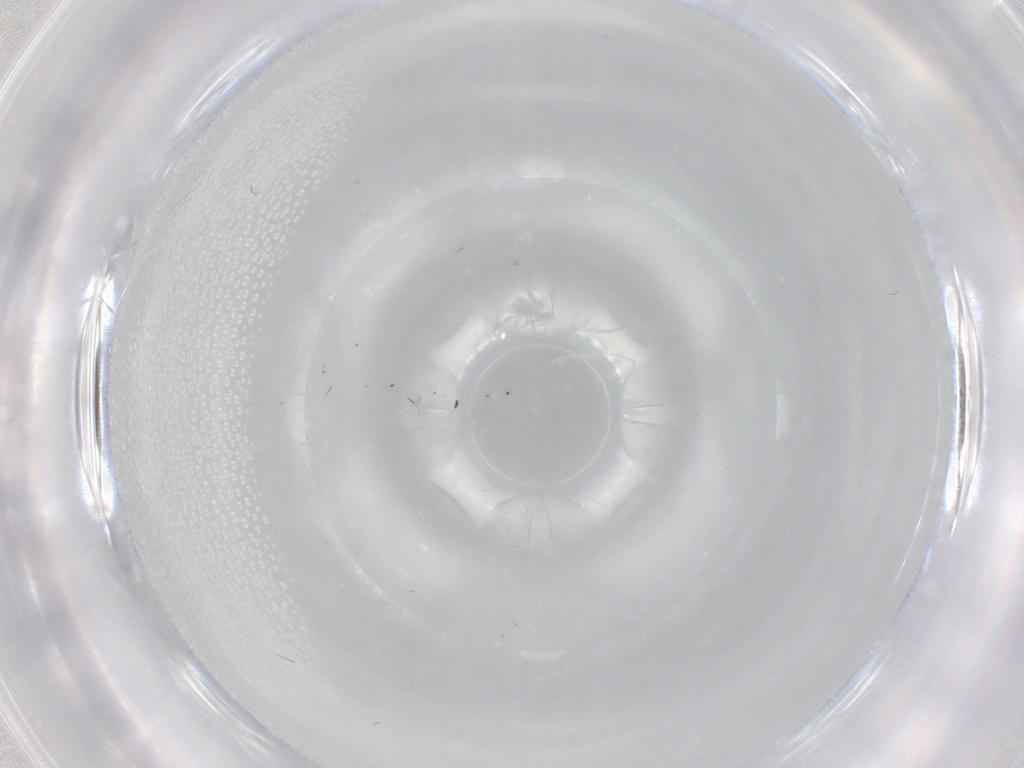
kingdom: Animalia
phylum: Arthropoda
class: Insecta
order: Diptera
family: Cecidomyiidae
